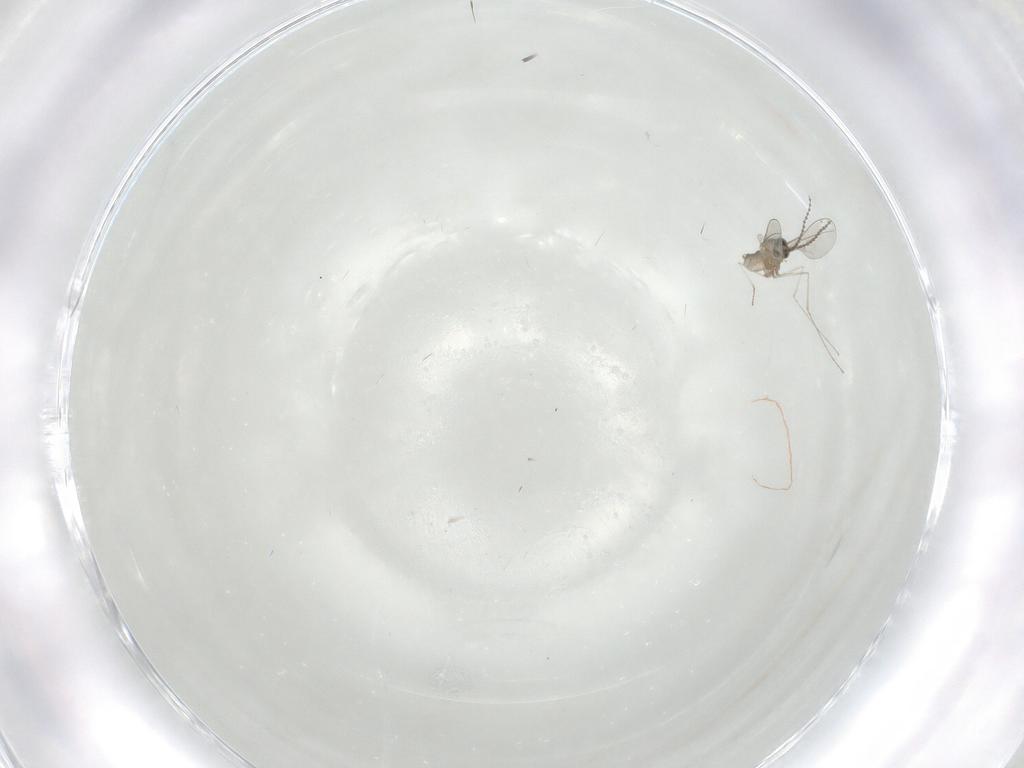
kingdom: Animalia
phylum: Arthropoda
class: Insecta
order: Diptera
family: Cecidomyiidae
